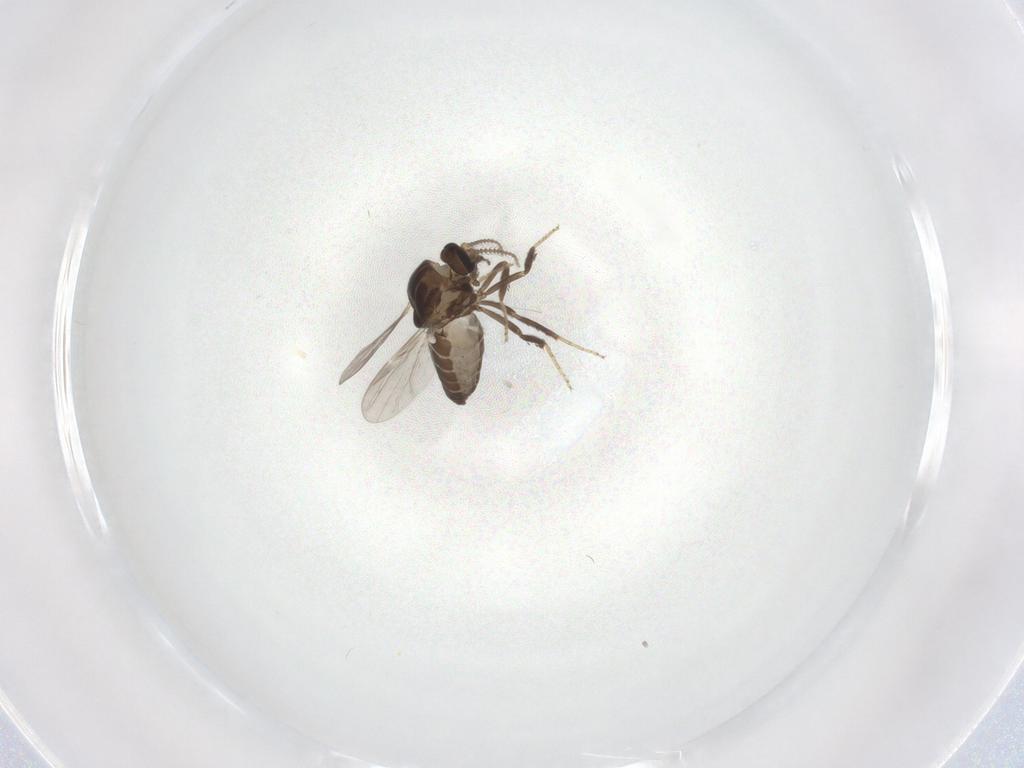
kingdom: Animalia
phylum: Arthropoda
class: Insecta
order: Diptera
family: Ceratopogonidae
